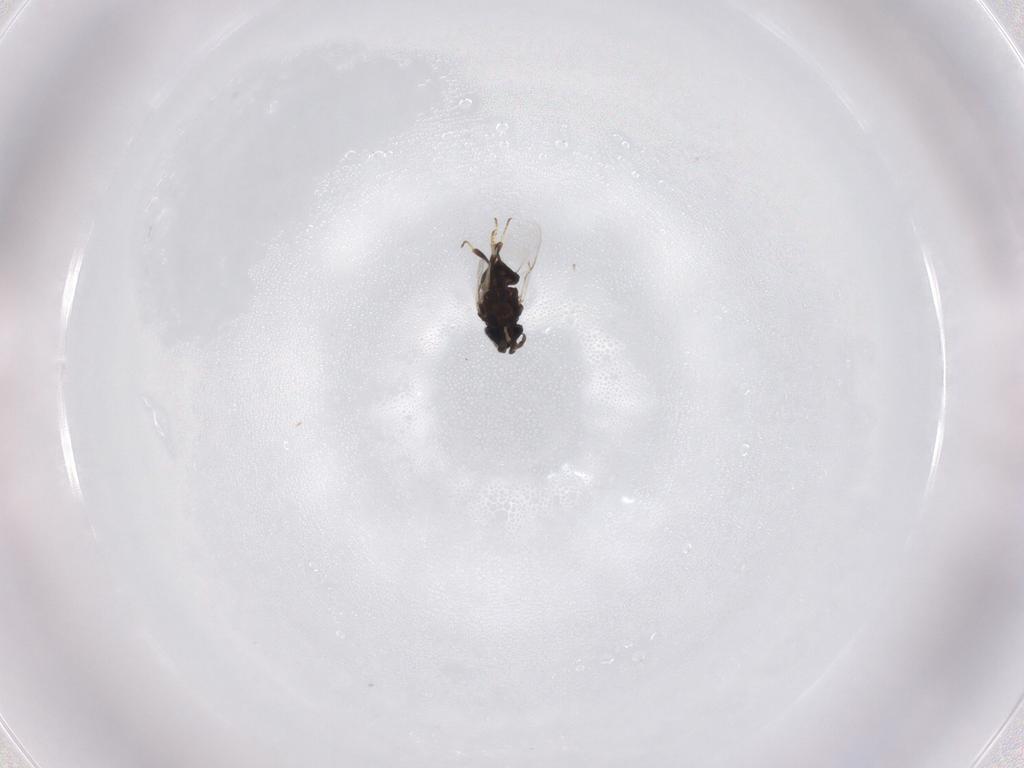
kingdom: Animalia
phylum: Arthropoda
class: Insecta
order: Hymenoptera
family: Encyrtidae
